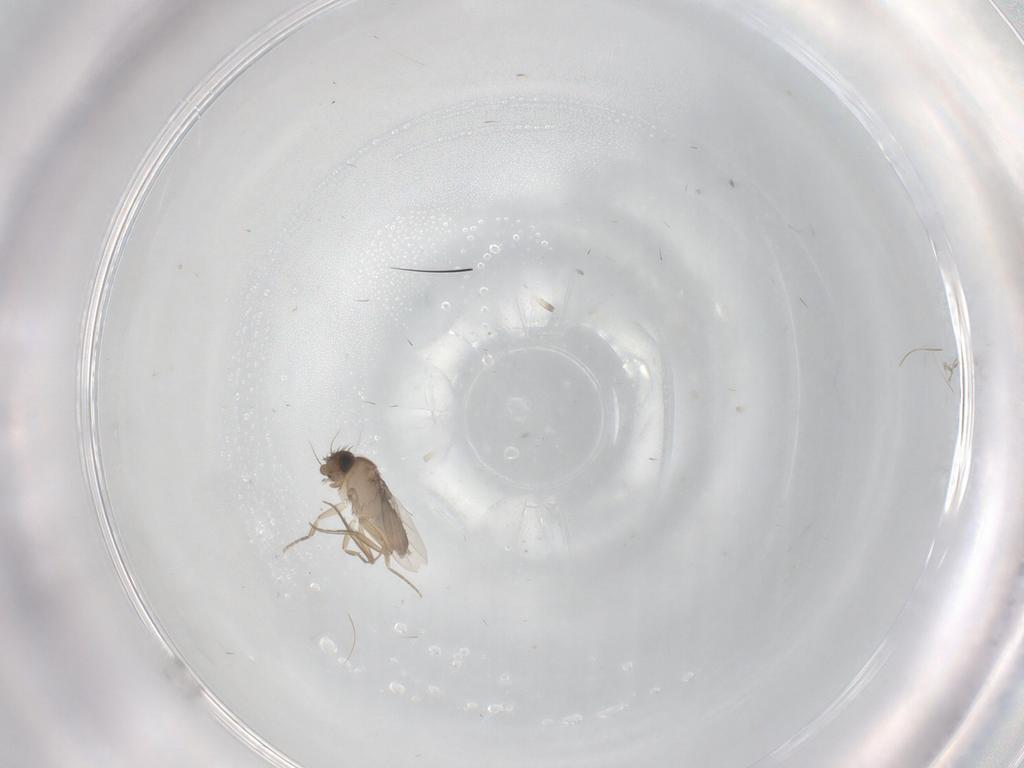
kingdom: Animalia
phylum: Arthropoda
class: Insecta
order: Diptera
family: Phoridae
